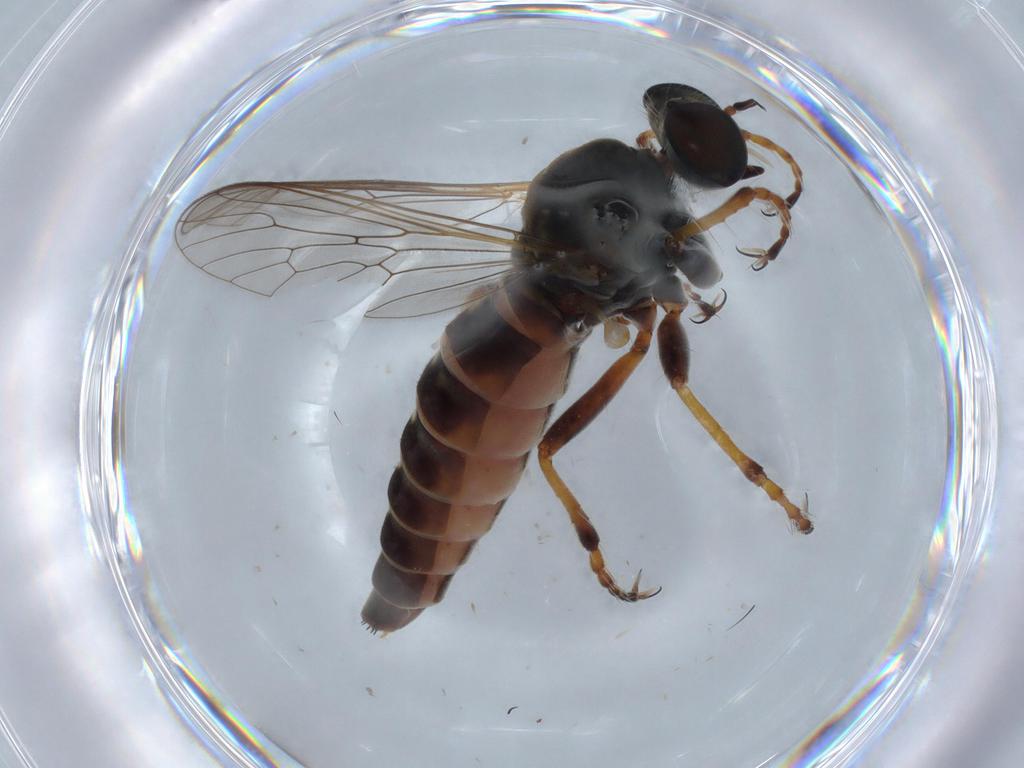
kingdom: Animalia
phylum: Arthropoda
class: Insecta
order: Diptera
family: Asilidae
